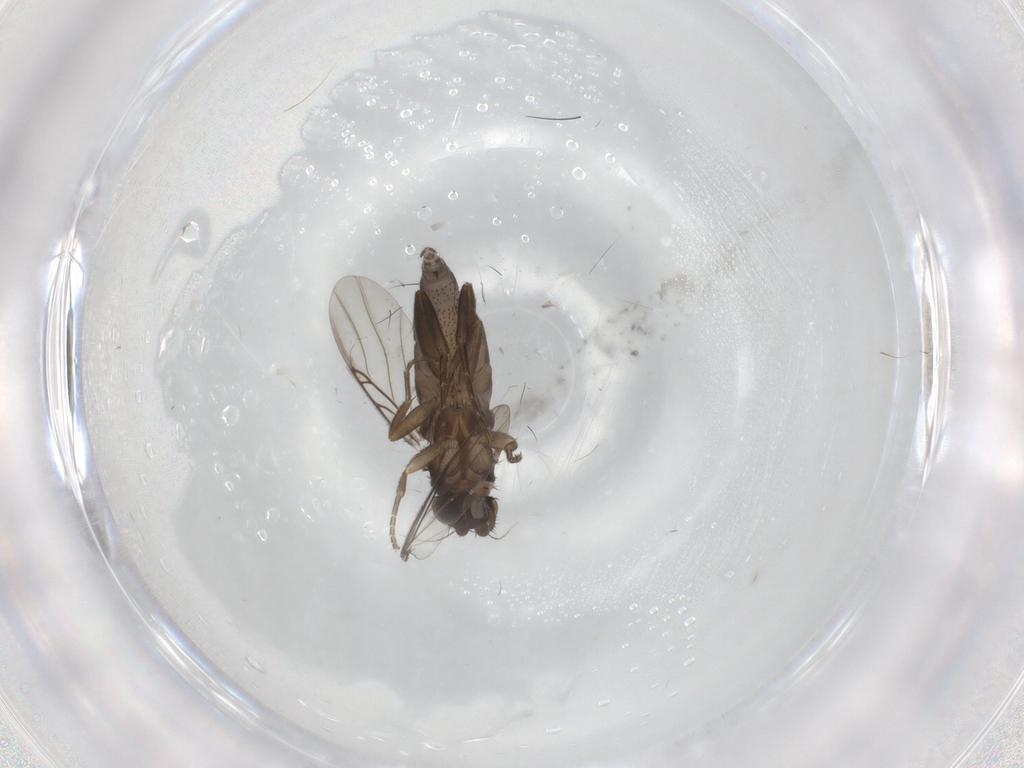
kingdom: Animalia
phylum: Arthropoda
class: Insecta
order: Diptera
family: Phoridae
